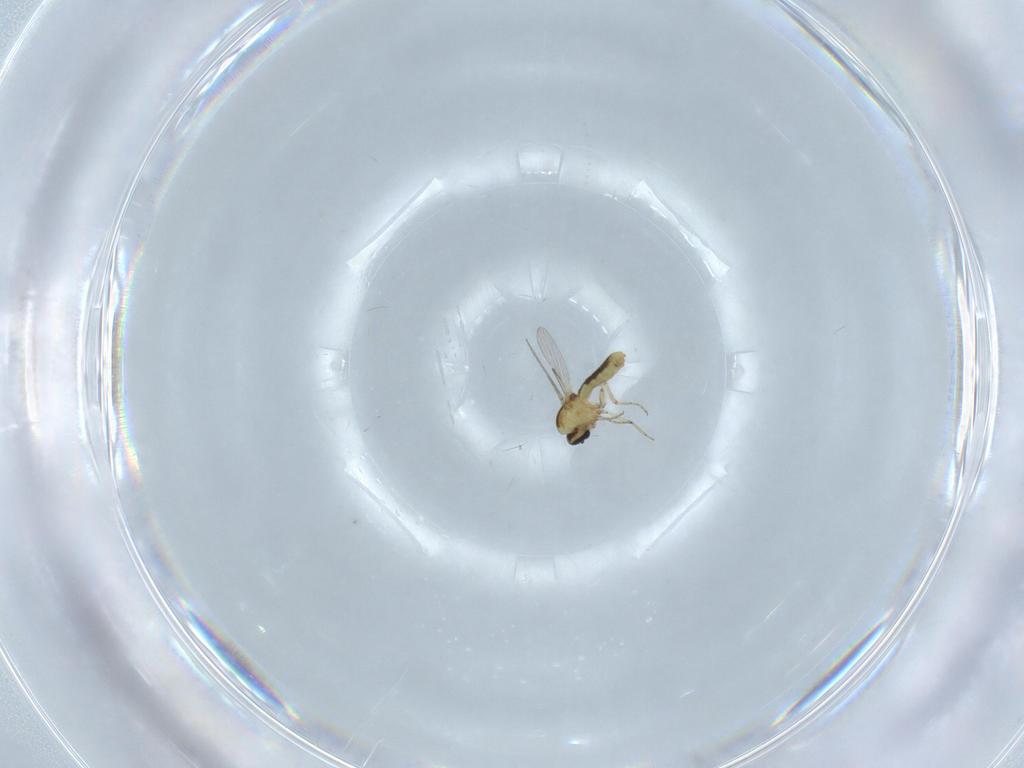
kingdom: Animalia
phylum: Arthropoda
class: Insecta
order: Diptera
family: Ceratopogonidae
